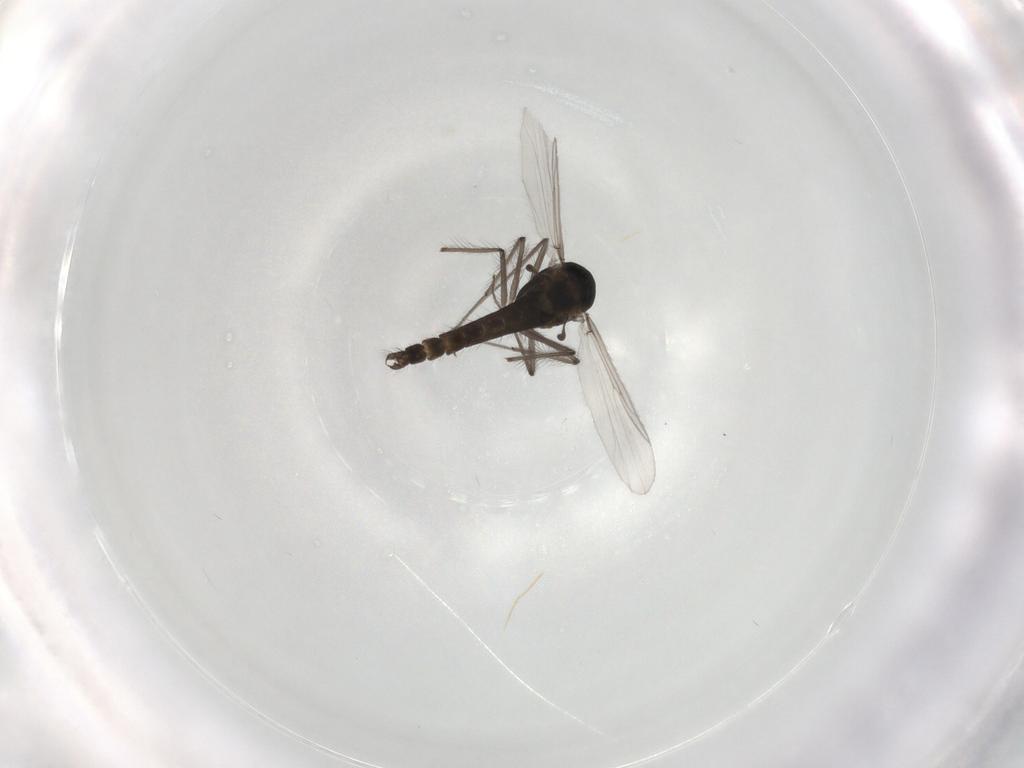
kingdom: Animalia
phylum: Arthropoda
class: Insecta
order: Diptera
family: Chironomidae
